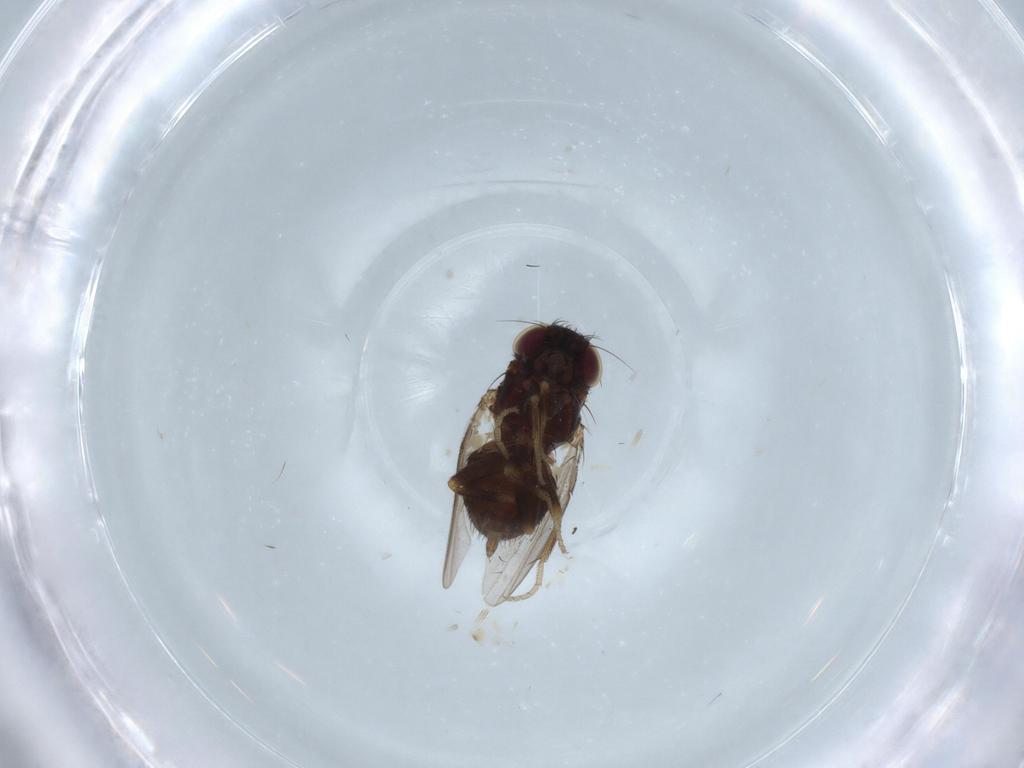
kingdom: Animalia
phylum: Arthropoda
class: Insecta
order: Diptera
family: Milichiidae
